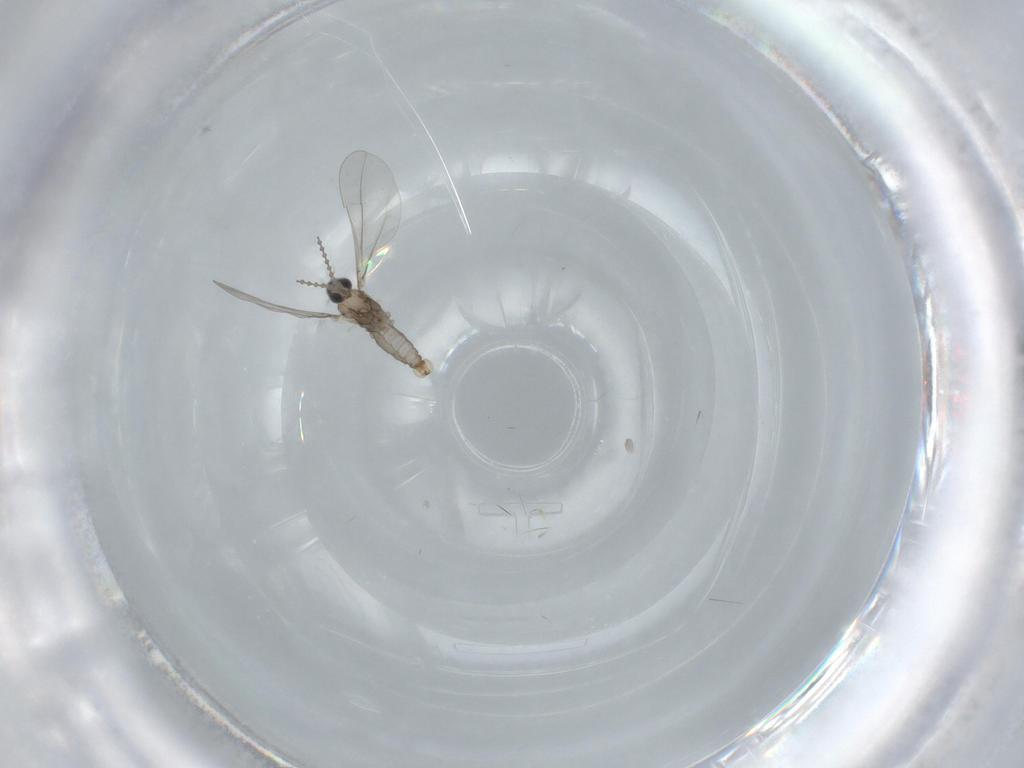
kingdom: Animalia
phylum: Arthropoda
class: Insecta
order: Diptera
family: Cecidomyiidae
